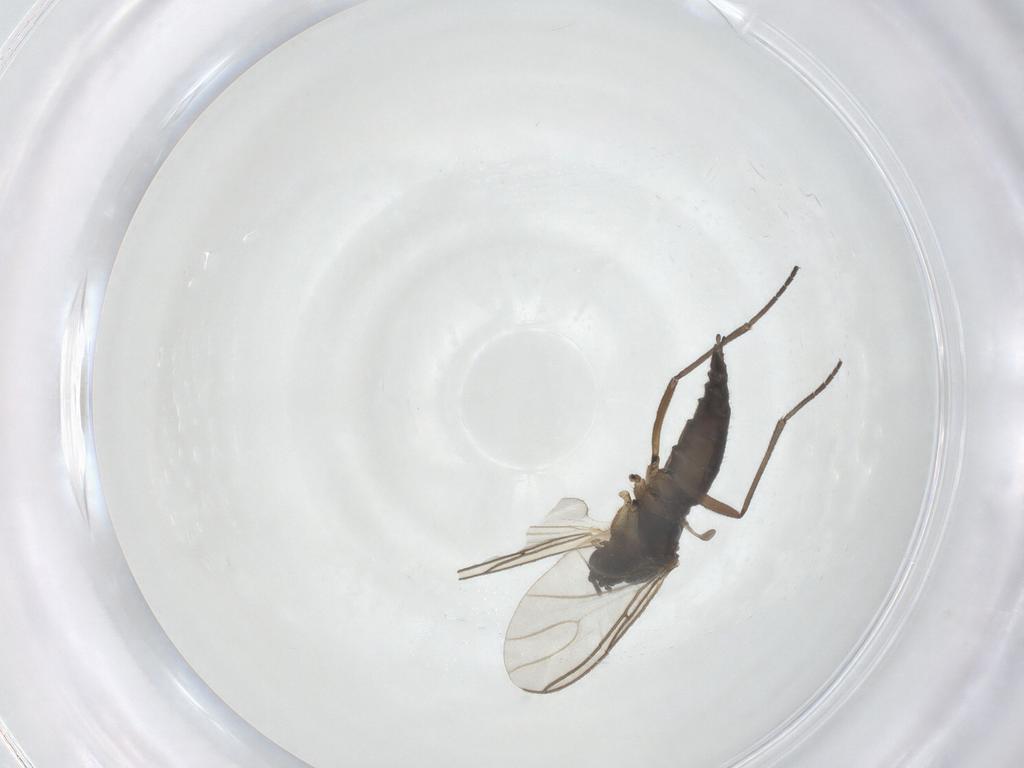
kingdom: Animalia
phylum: Arthropoda
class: Insecta
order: Diptera
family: Sciaridae
